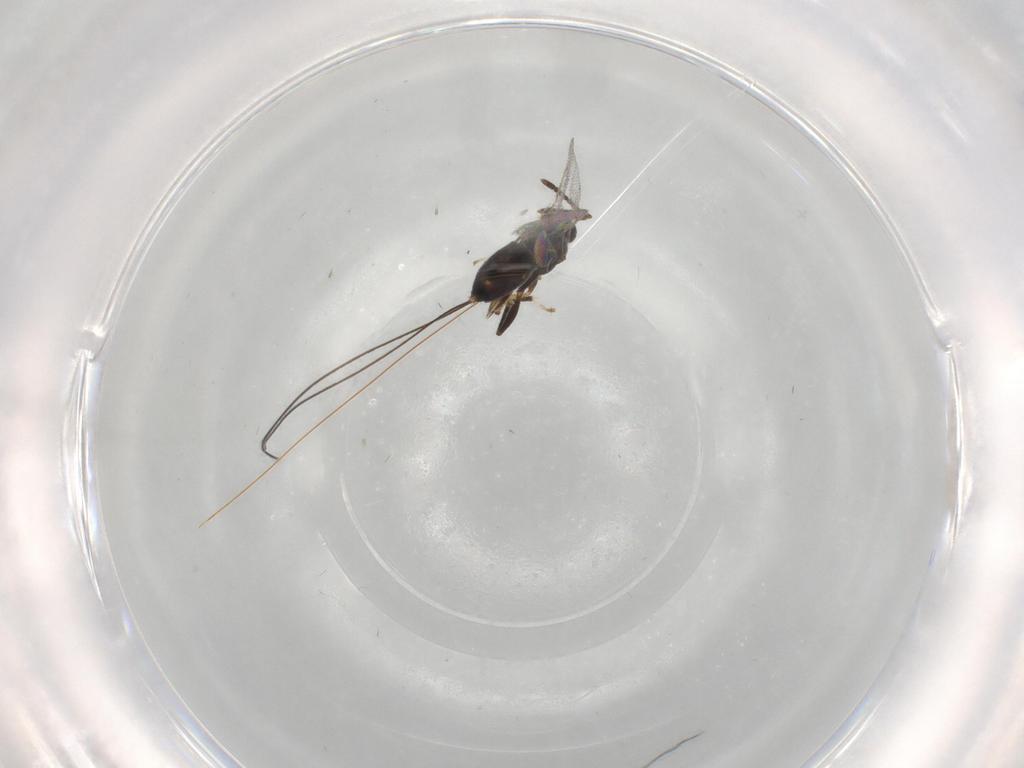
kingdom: Animalia
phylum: Arthropoda
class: Insecta
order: Hymenoptera
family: Torymidae
